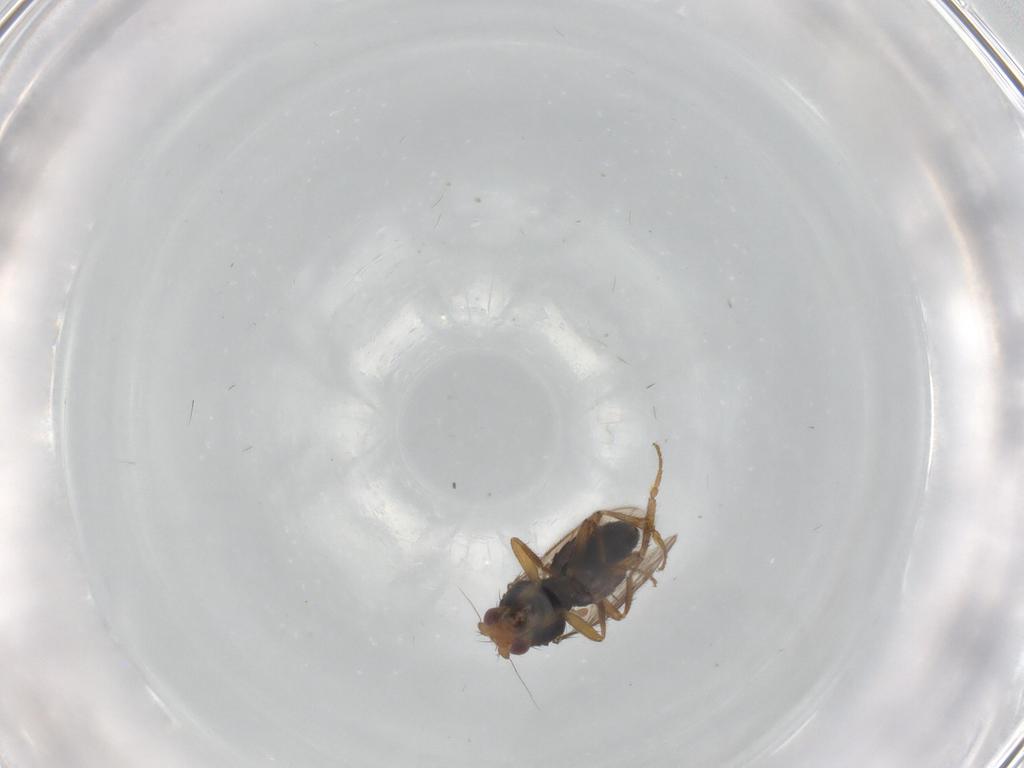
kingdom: Animalia
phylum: Arthropoda
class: Insecta
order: Diptera
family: Sphaeroceridae
